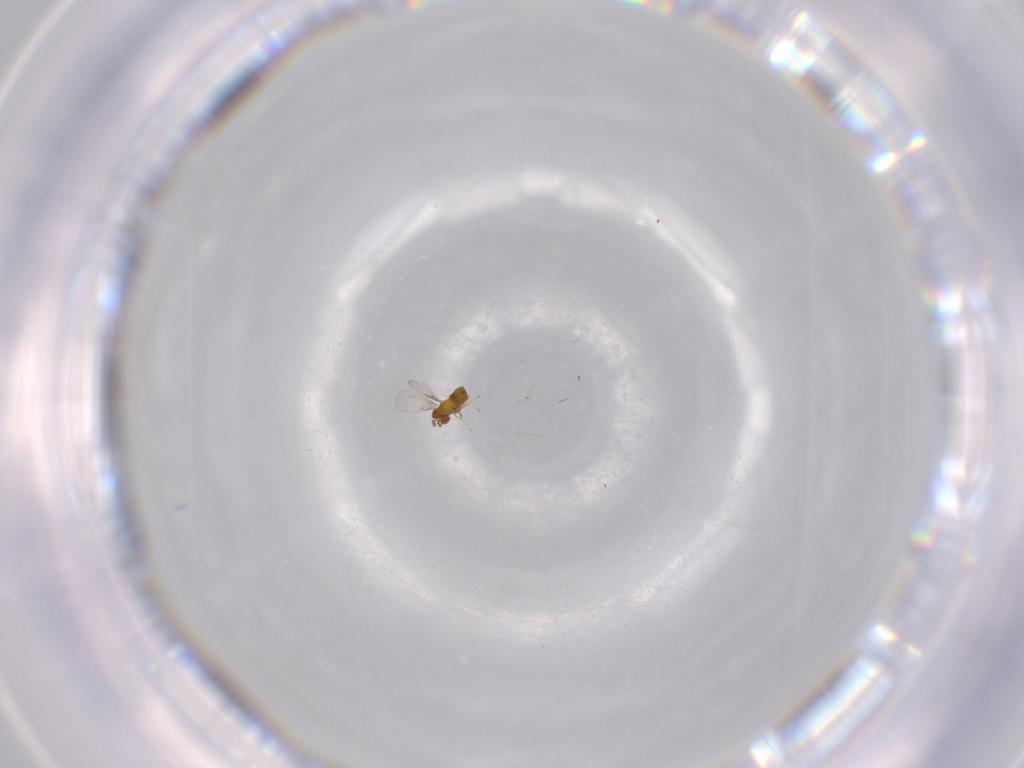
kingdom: Animalia
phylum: Arthropoda
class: Insecta
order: Hymenoptera
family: Trichogrammatidae
